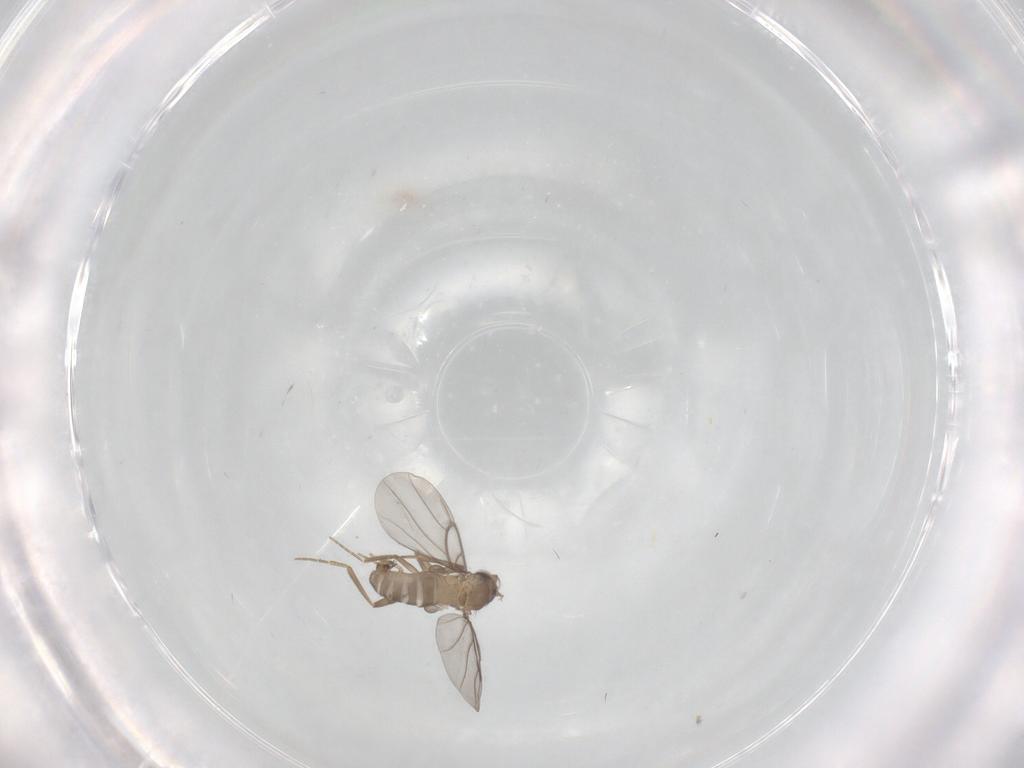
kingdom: Animalia
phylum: Arthropoda
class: Insecta
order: Diptera
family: Chironomidae
